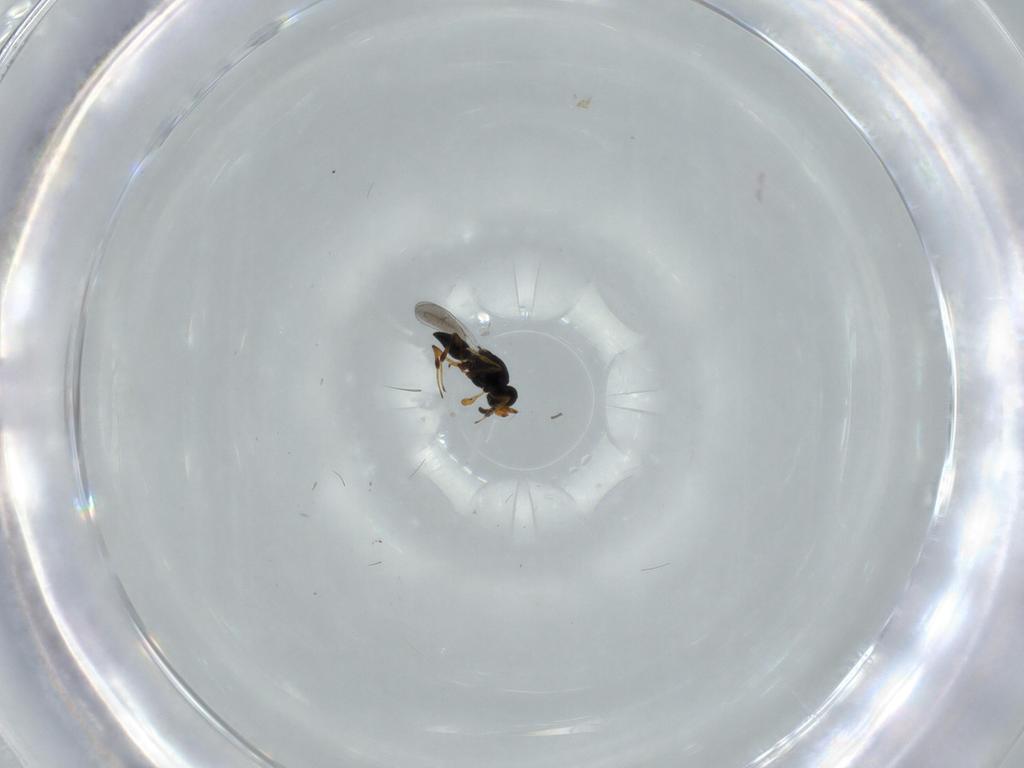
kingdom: Animalia
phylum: Arthropoda
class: Insecta
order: Hymenoptera
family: Platygastridae
